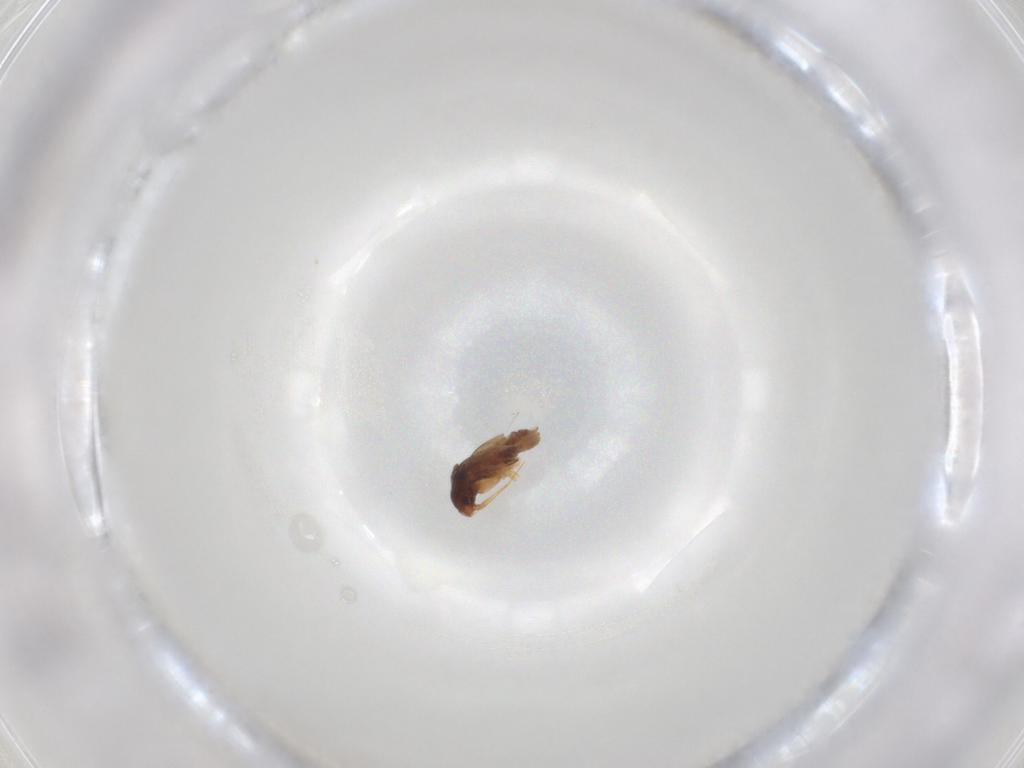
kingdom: Animalia
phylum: Arthropoda
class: Insecta
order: Hemiptera
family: Ceratocombidae
